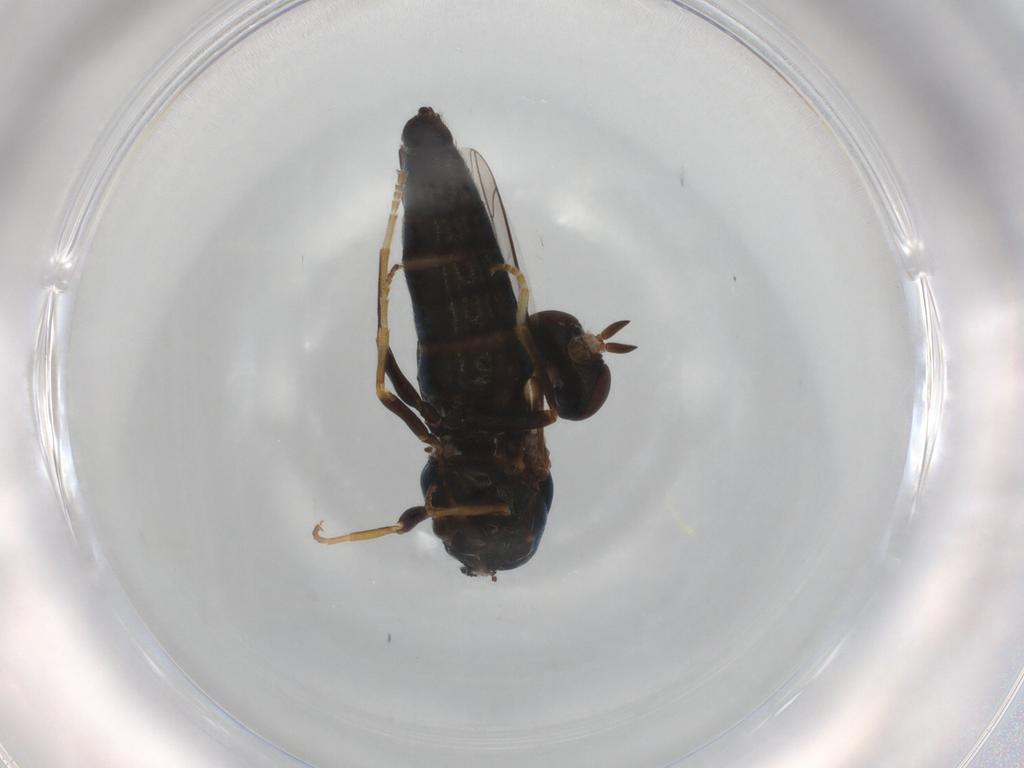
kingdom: Animalia
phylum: Arthropoda
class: Insecta
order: Diptera
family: Scenopinidae
